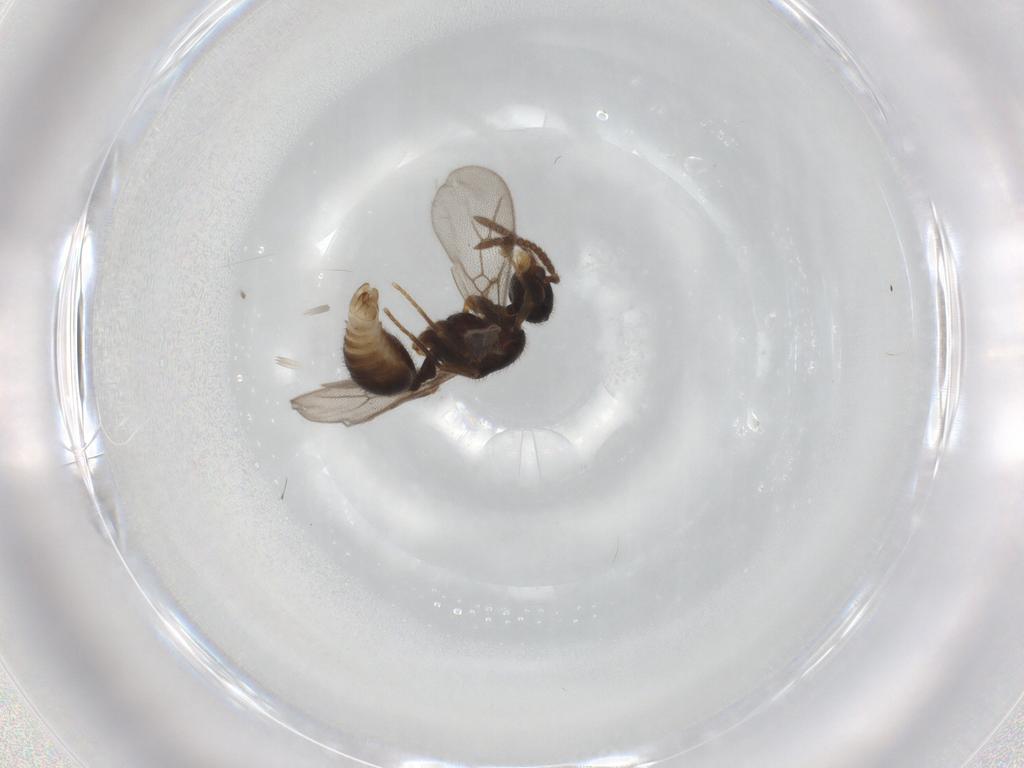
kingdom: Animalia
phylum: Arthropoda
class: Insecta
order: Hymenoptera
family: Formicidae
